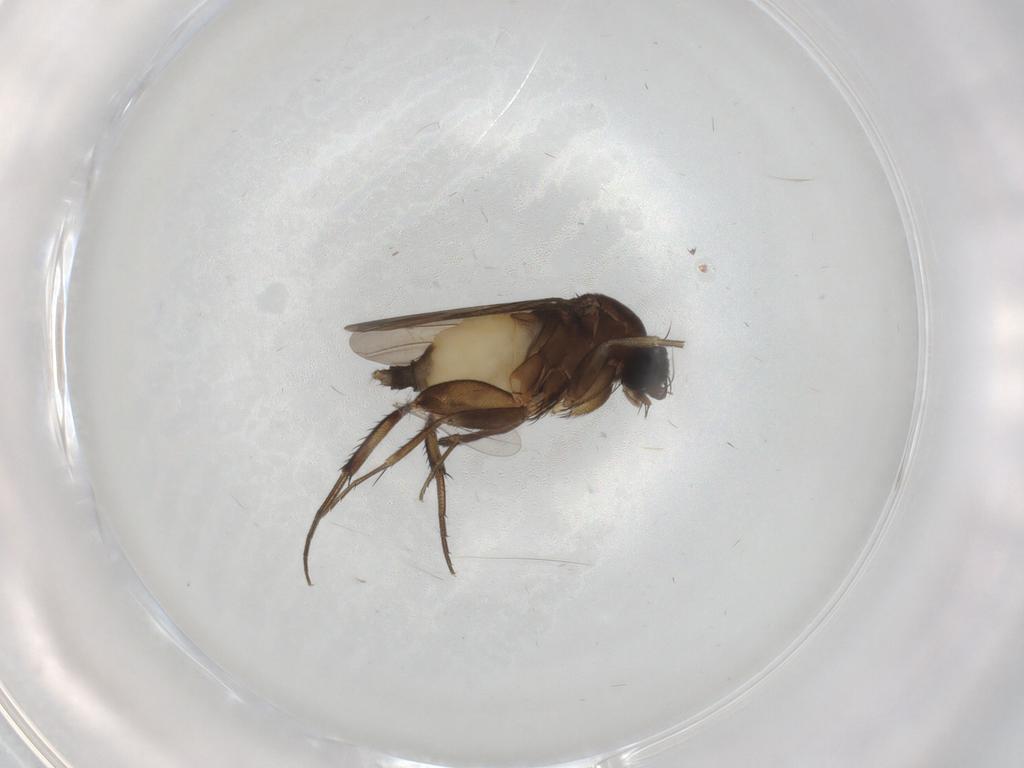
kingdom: Animalia
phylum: Arthropoda
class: Insecta
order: Diptera
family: Phoridae
